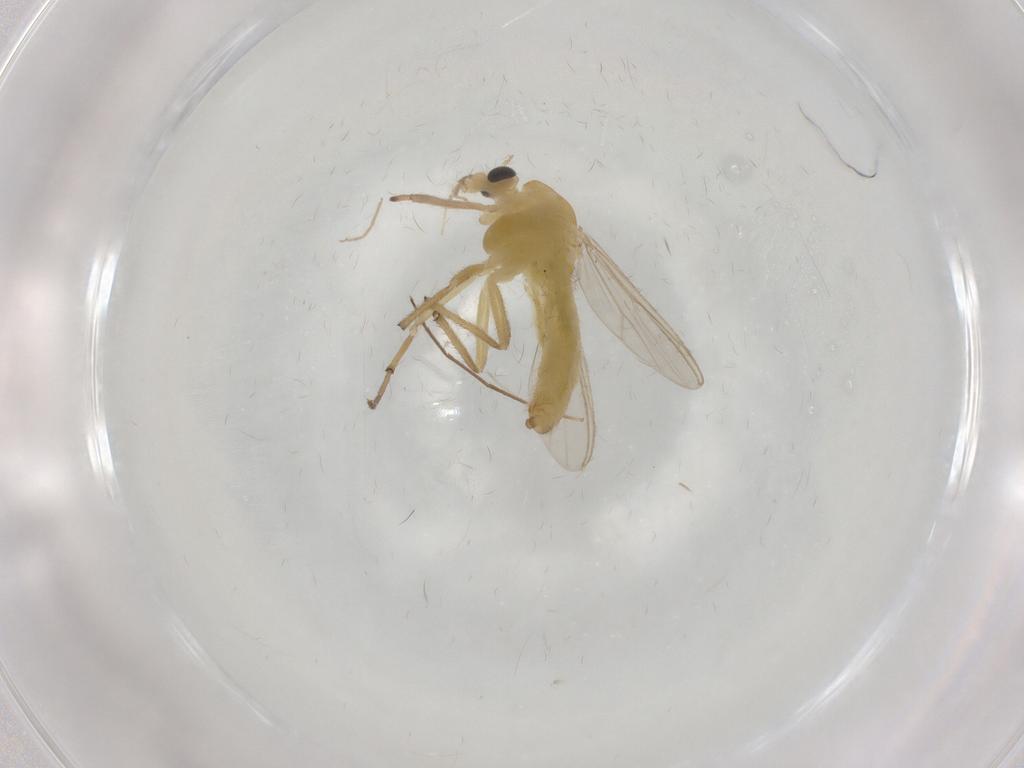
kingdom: Animalia
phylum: Arthropoda
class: Insecta
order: Diptera
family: Chironomidae
